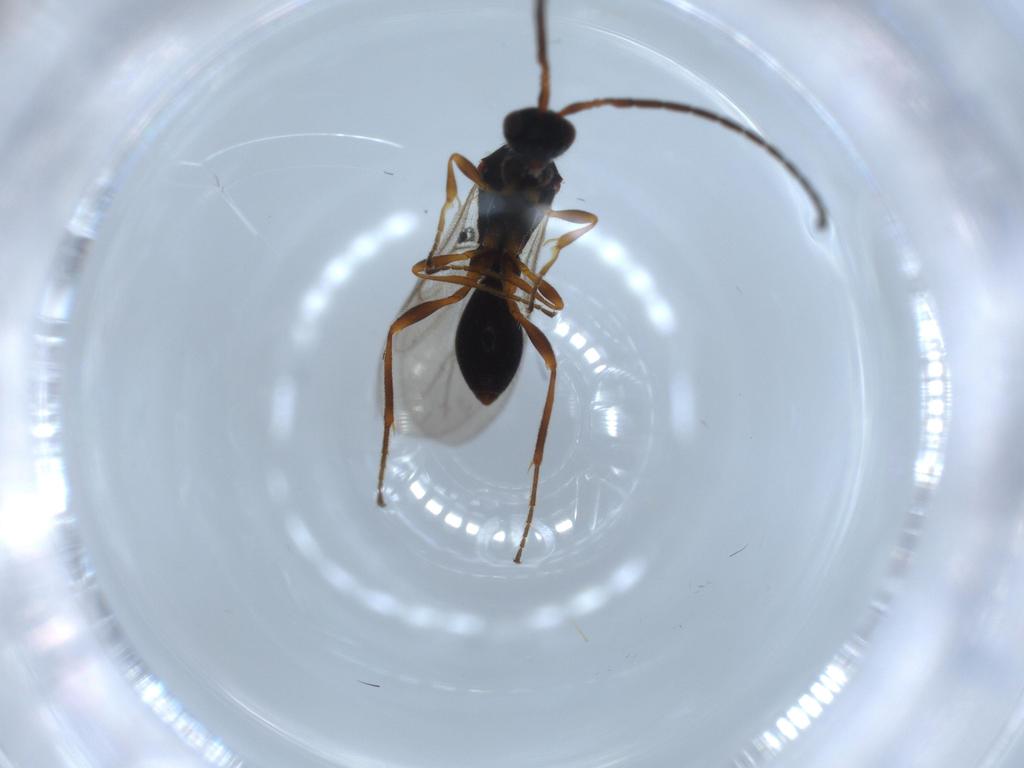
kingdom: Animalia
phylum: Arthropoda
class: Insecta
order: Hymenoptera
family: Diapriidae
